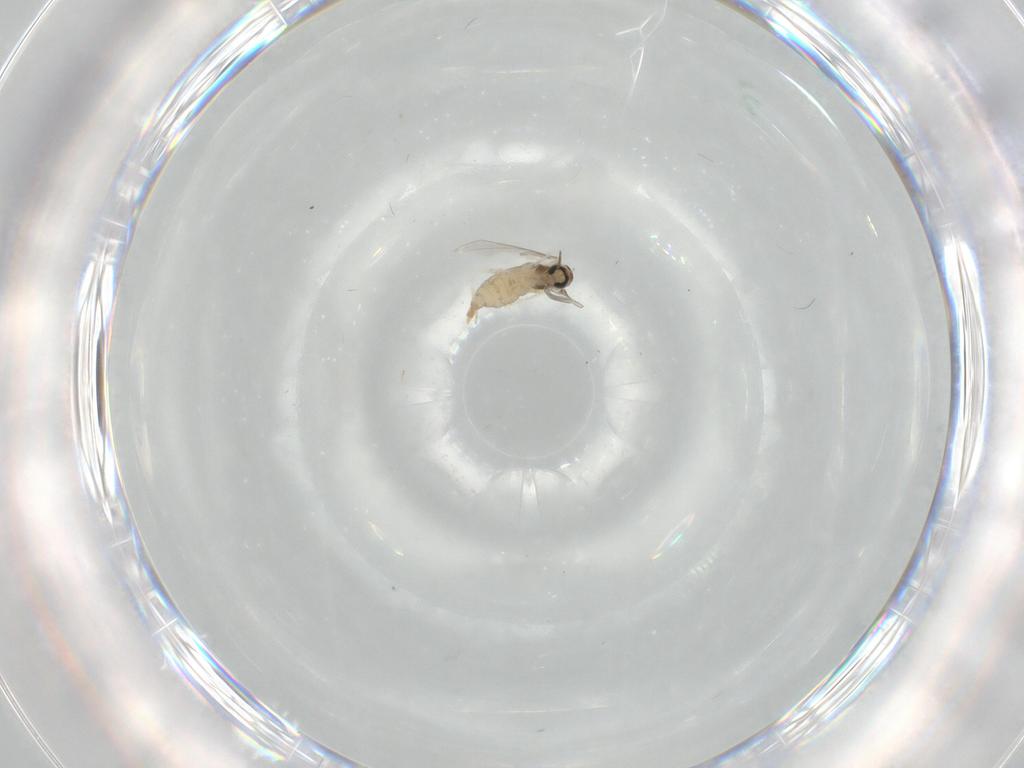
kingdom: Animalia
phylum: Arthropoda
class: Insecta
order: Diptera
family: Cecidomyiidae
